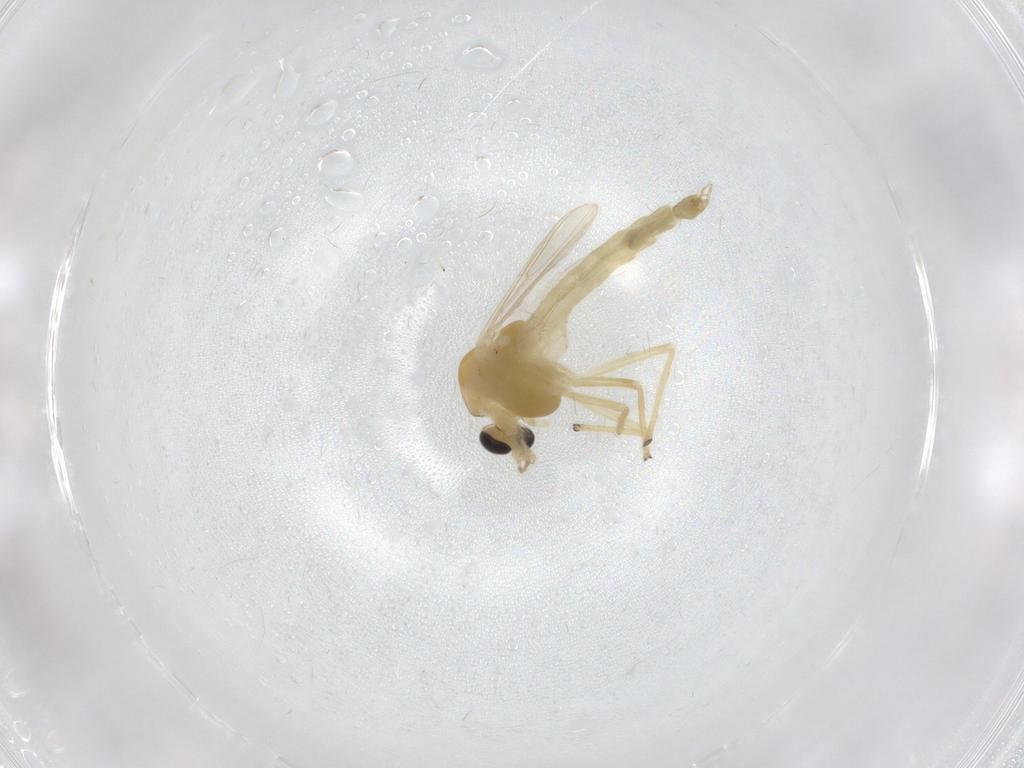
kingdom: Animalia
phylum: Arthropoda
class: Insecta
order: Diptera
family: Chironomidae
